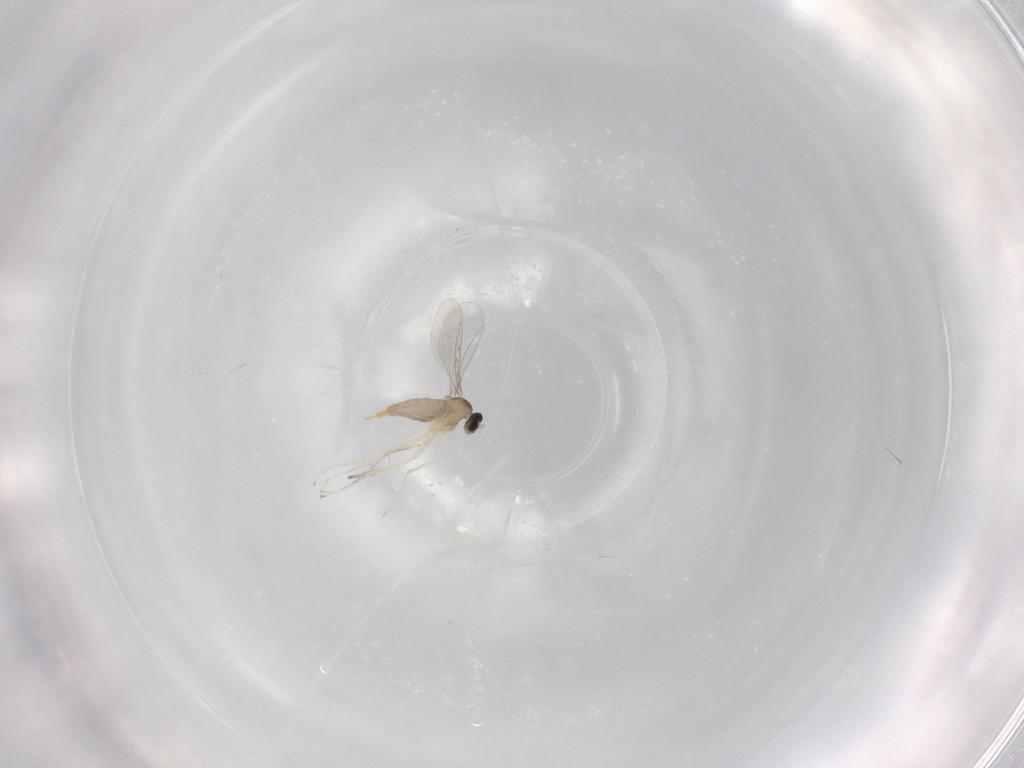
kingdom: Animalia
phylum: Arthropoda
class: Insecta
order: Diptera
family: Cecidomyiidae
